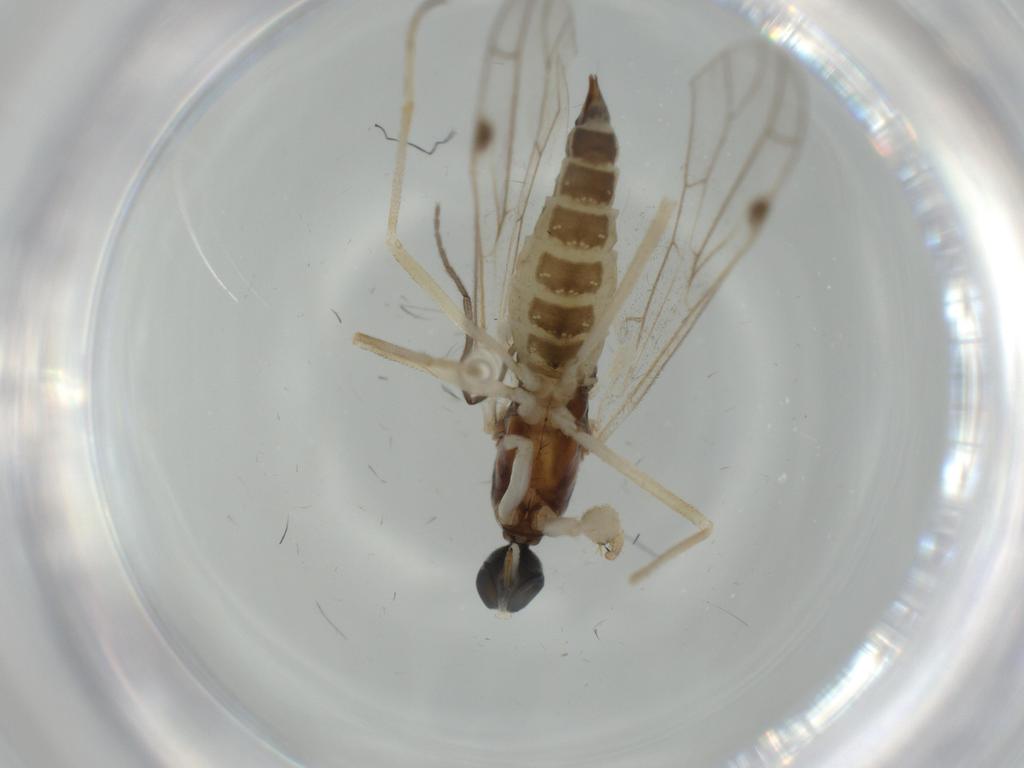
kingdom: Animalia
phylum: Arthropoda
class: Insecta
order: Diptera
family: Empididae
